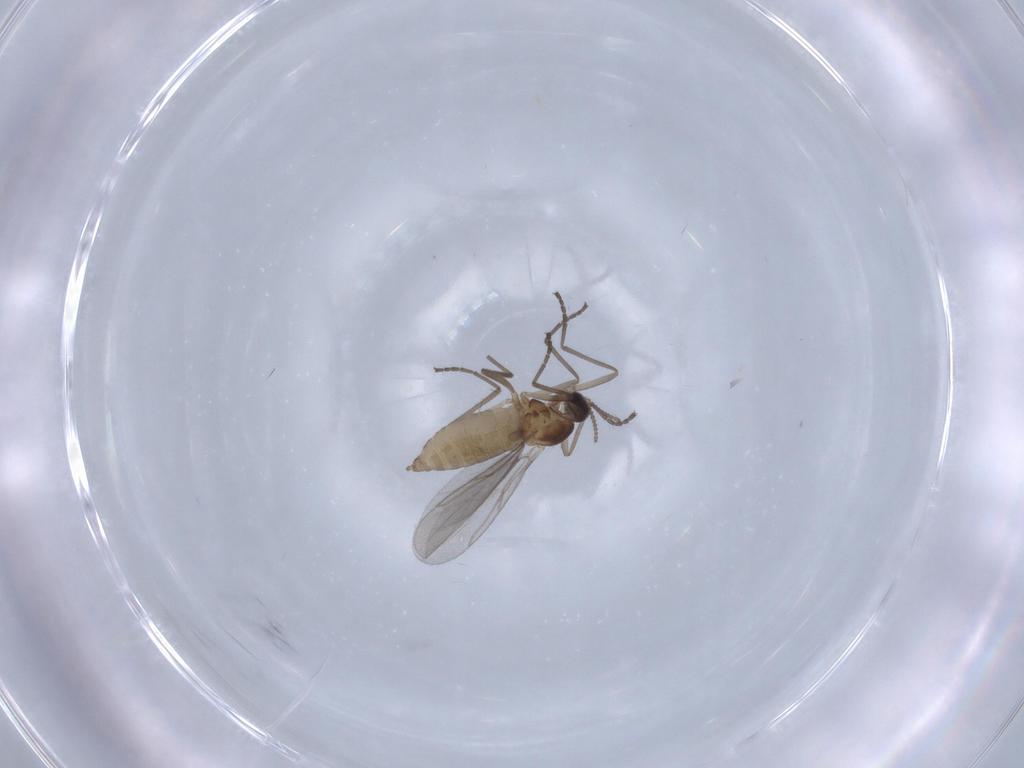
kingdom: Animalia
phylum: Arthropoda
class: Insecta
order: Diptera
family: Cecidomyiidae
